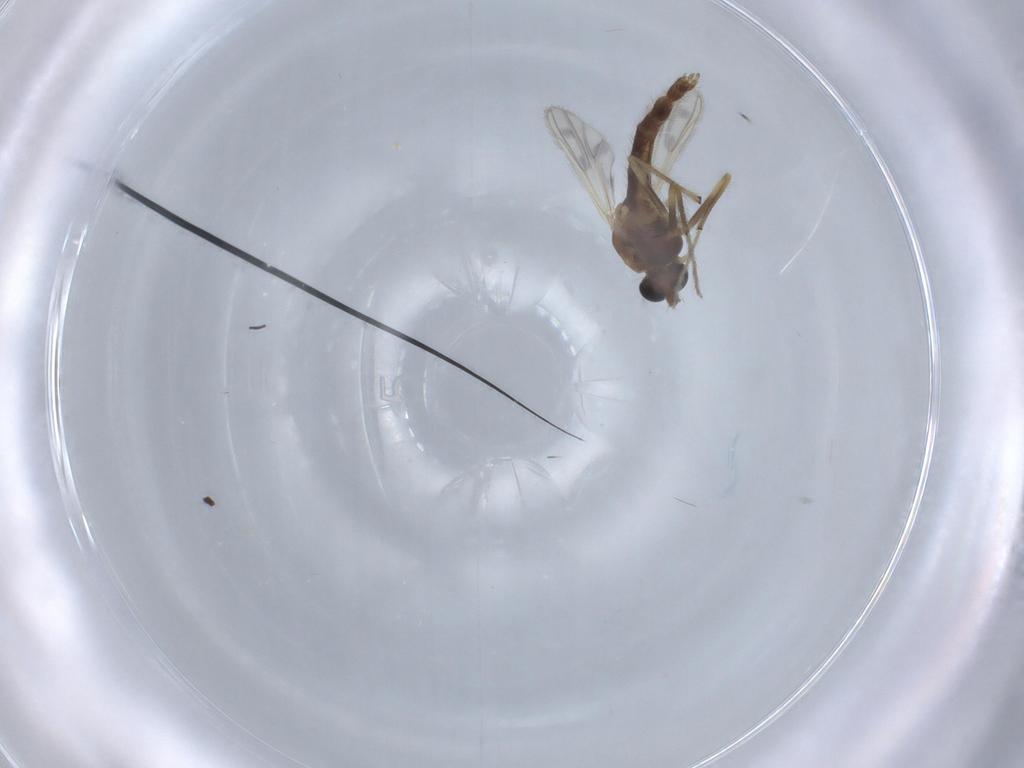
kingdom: Animalia
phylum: Arthropoda
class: Insecta
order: Diptera
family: Chironomidae
